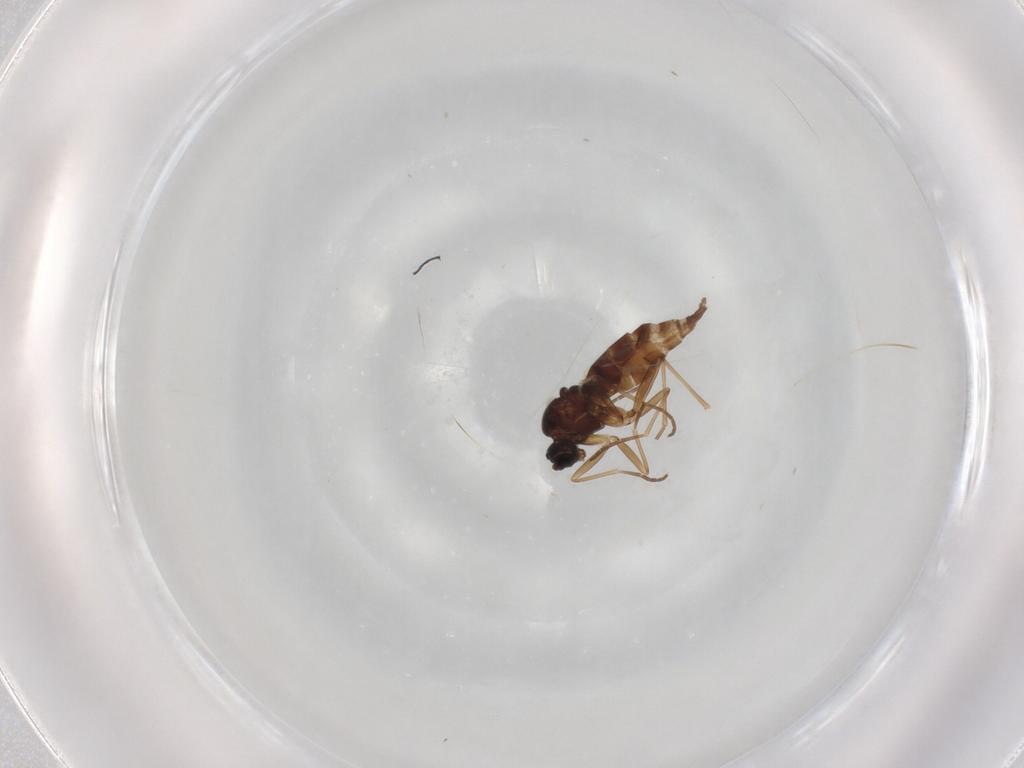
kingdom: Animalia
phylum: Arthropoda
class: Insecta
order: Diptera
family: Sciaridae
